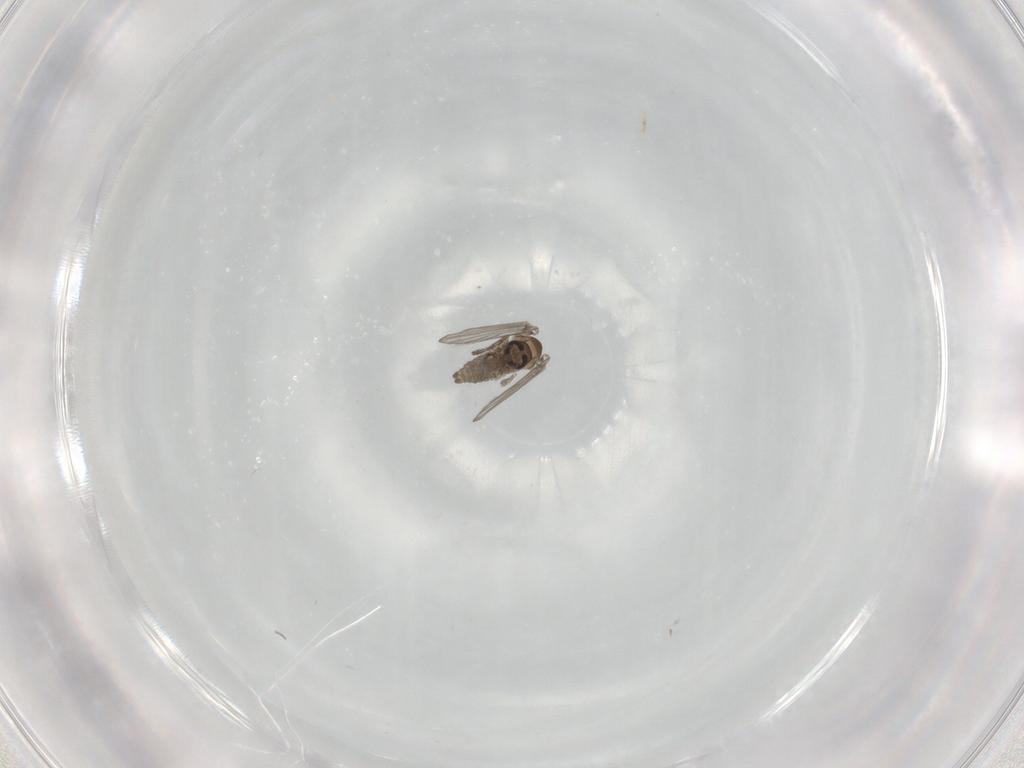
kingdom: Animalia
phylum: Arthropoda
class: Insecta
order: Diptera
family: Psychodidae
